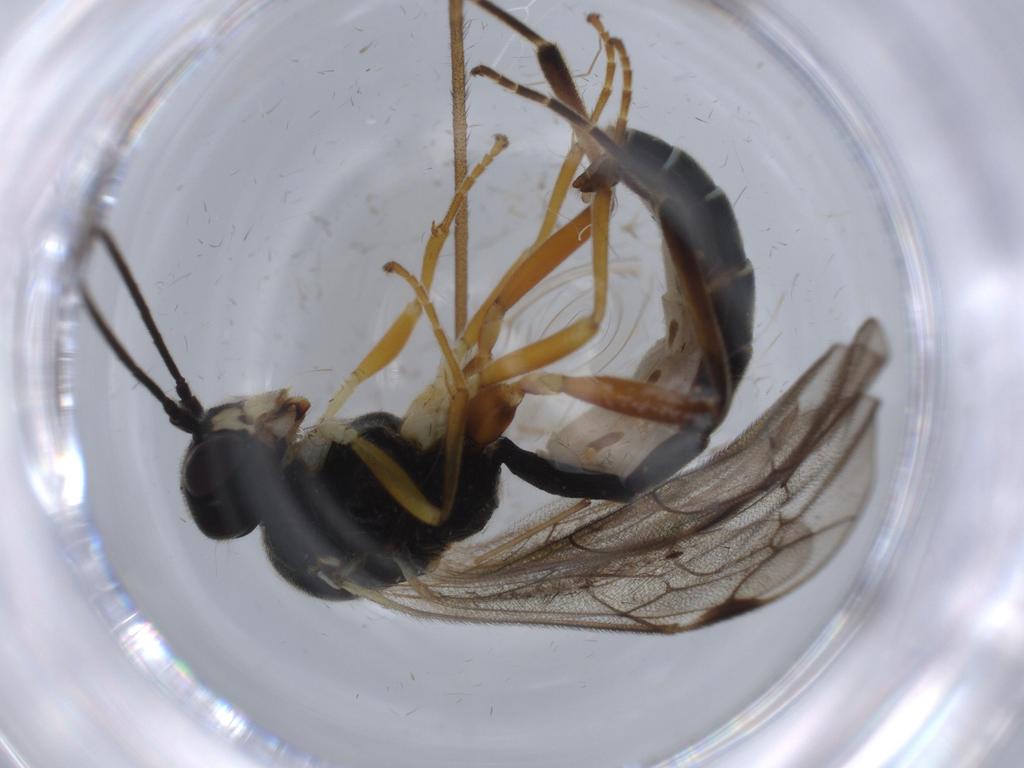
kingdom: Animalia
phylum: Arthropoda
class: Insecta
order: Hymenoptera
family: Ichneumonidae
